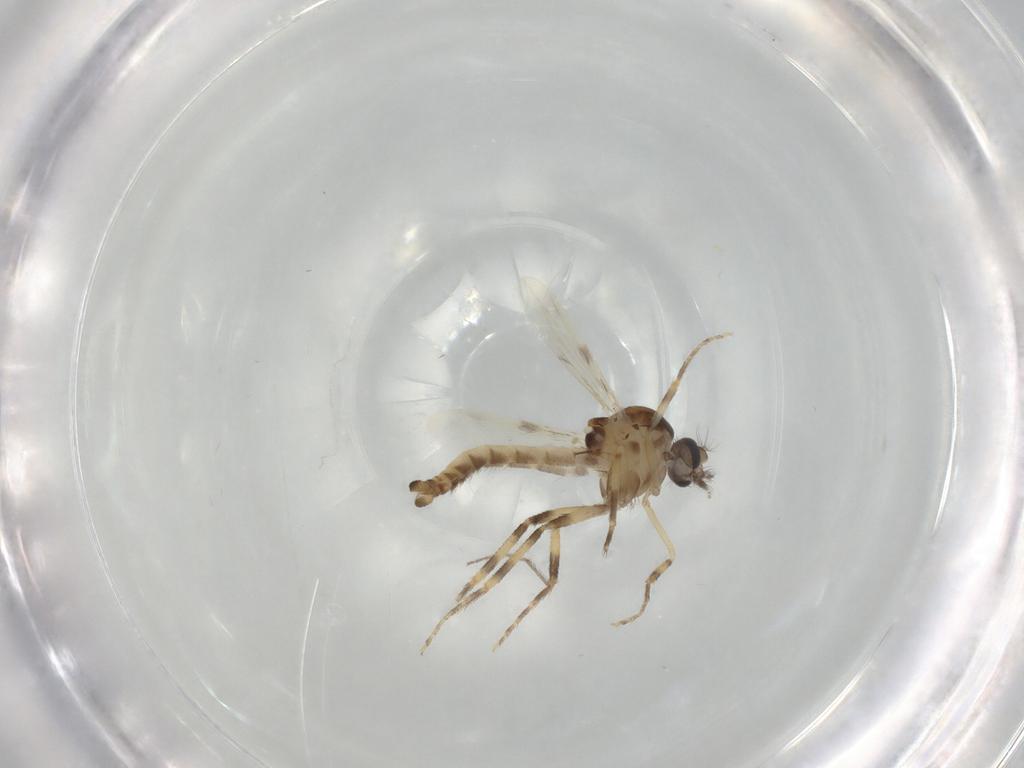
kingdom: Animalia
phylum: Arthropoda
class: Insecta
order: Diptera
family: Ceratopogonidae
